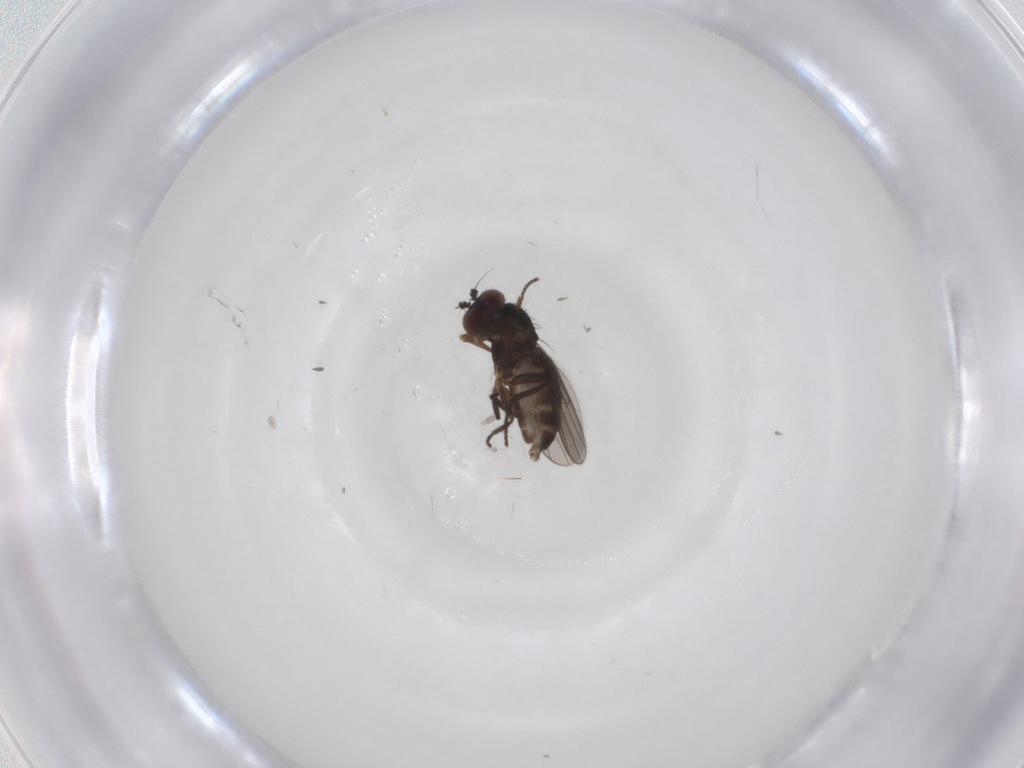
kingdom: Animalia
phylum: Arthropoda
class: Insecta
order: Diptera
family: Dolichopodidae
